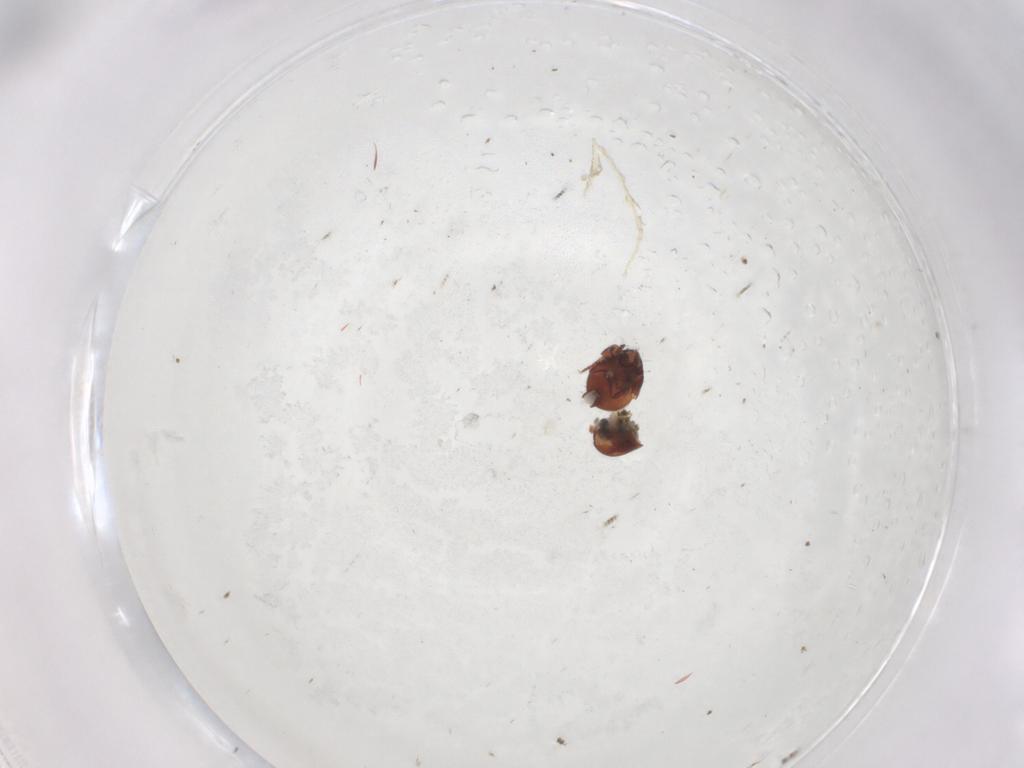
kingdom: Animalia
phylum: Arthropoda
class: Arachnida
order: Sarcoptiformes
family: Humerobatidae
